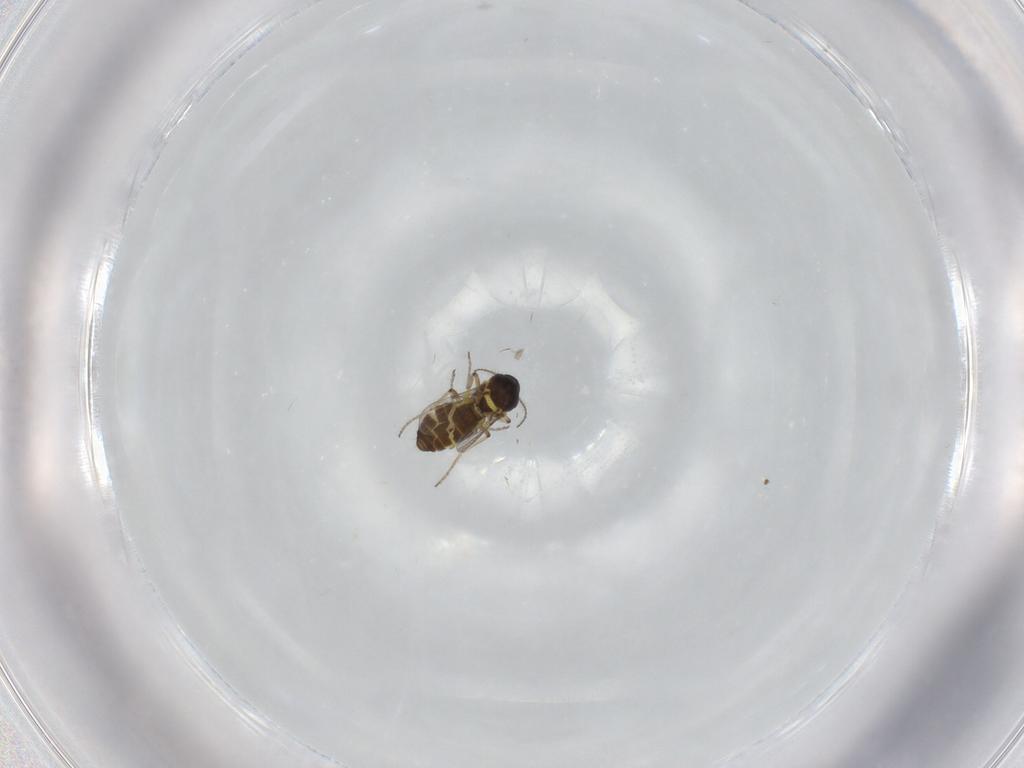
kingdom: Animalia
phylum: Arthropoda
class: Insecta
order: Diptera
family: Ceratopogonidae
